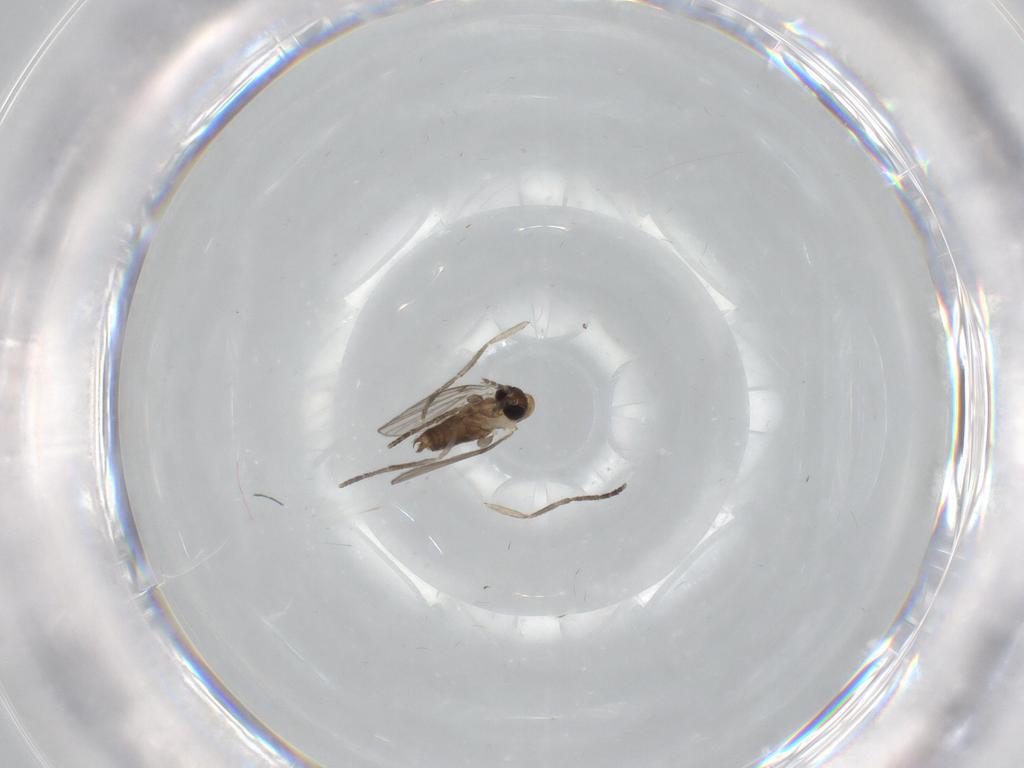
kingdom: Animalia
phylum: Arthropoda
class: Insecta
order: Diptera
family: Psychodidae
